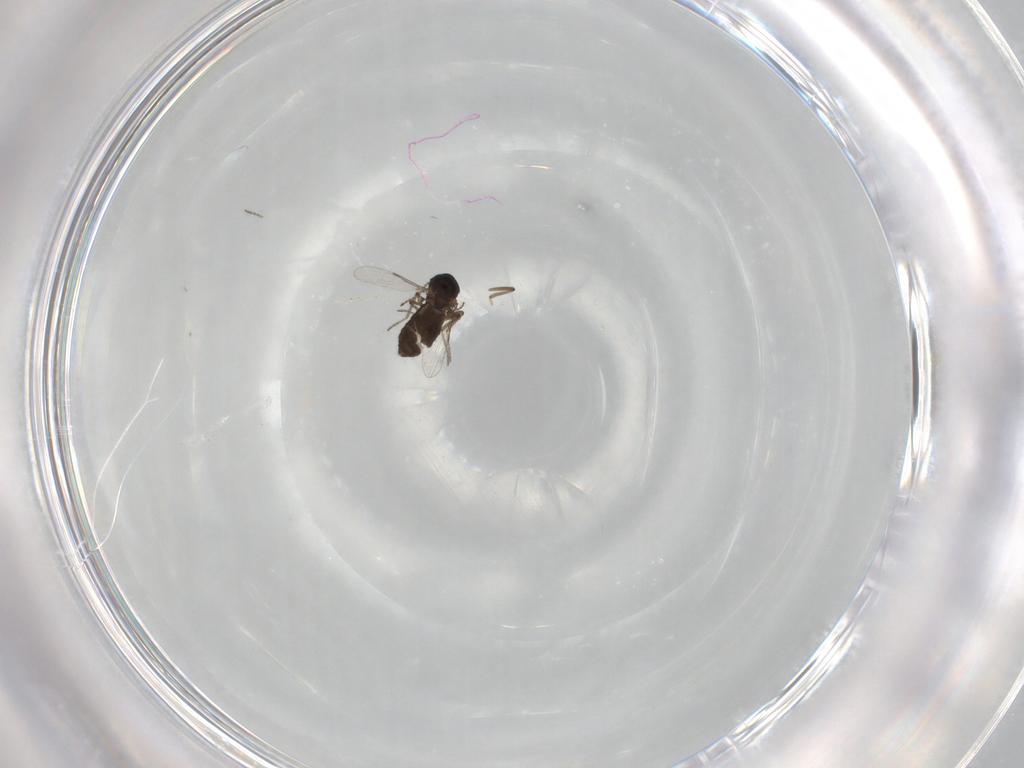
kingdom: Animalia
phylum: Arthropoda
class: Insecta
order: Diptera
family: Ceratopogonidae
